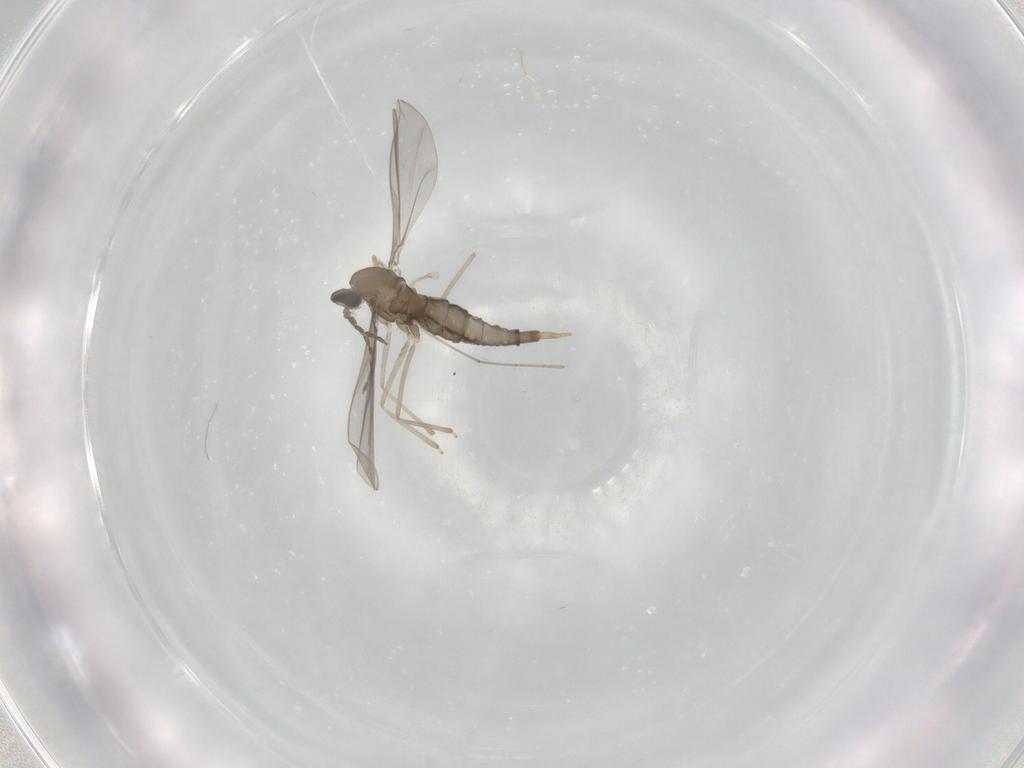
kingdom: Animalia
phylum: Arthropoda
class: Insecta
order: Diptera
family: Cecidomyiidae
